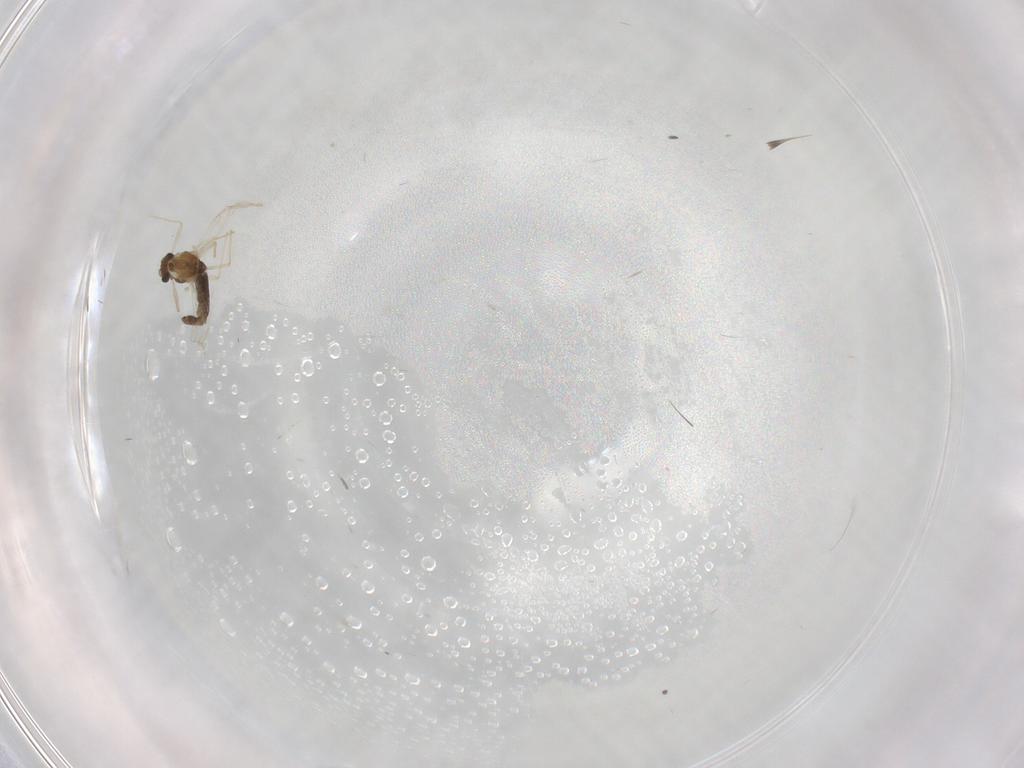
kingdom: Animalia
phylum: Arthropoda
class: Insecta
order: Diptera
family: Chironomidae
